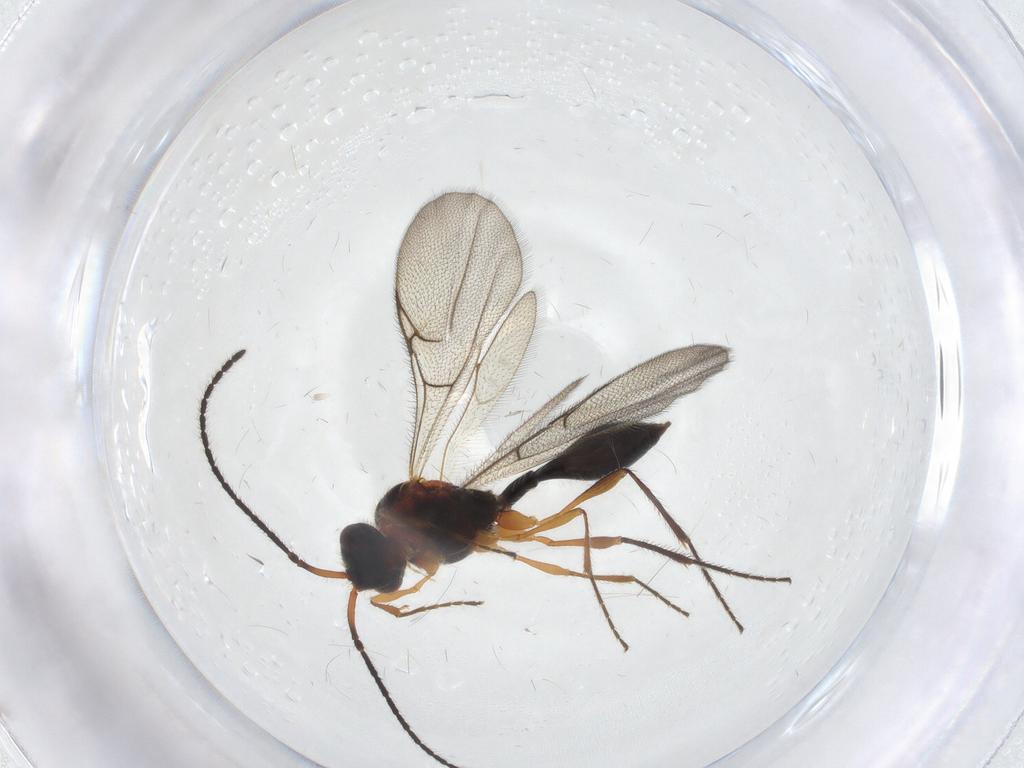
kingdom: Animalia
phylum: Arthropoda
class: Insecta
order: Hymenoptera
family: Diapriidae
